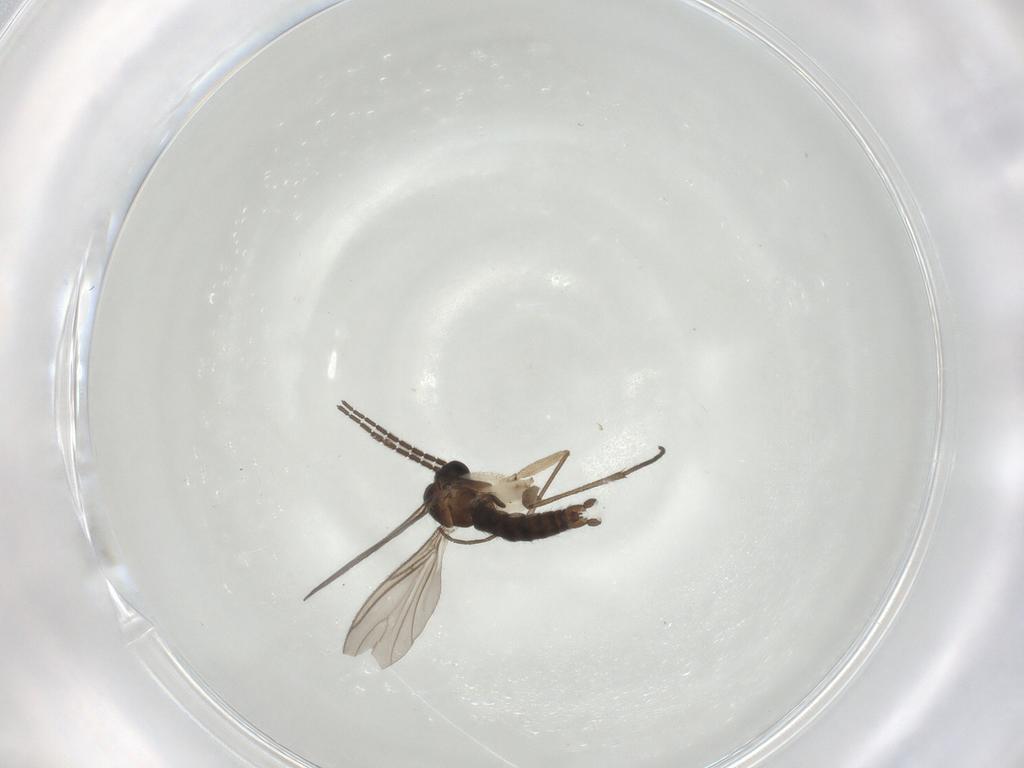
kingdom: Animalia
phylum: Arthropoda
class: Insecta
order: Diptera
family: Sciaridae
